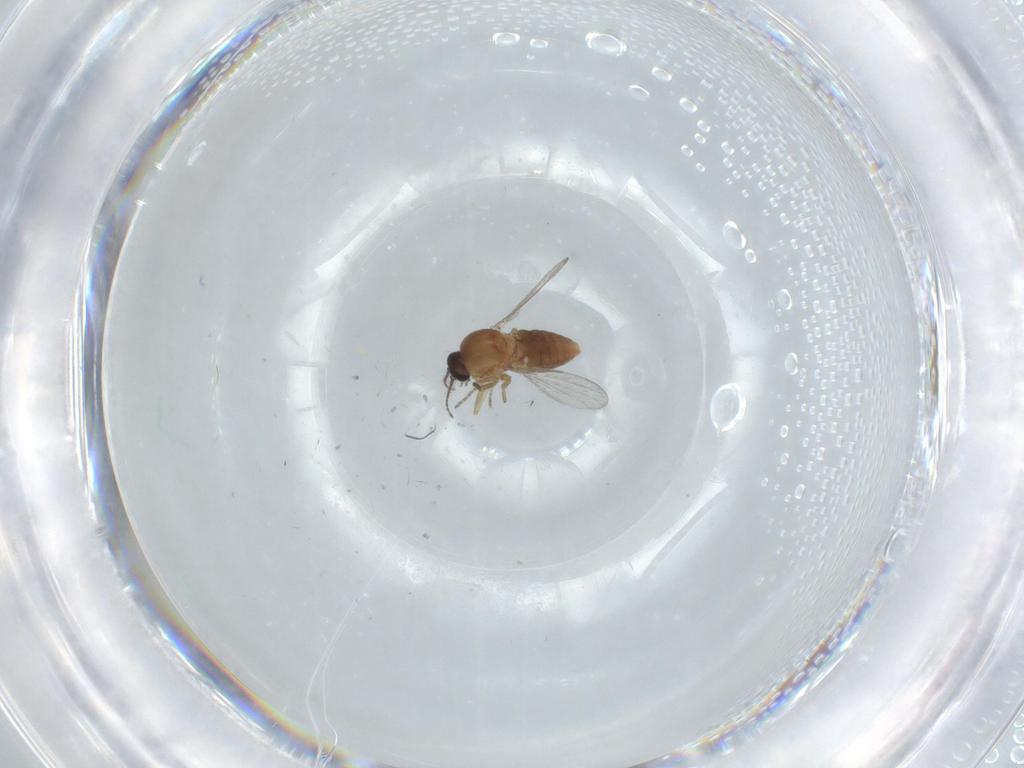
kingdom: Animalia
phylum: Arthropoda
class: Insecta
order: Diptera
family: Ceratopogonidae
